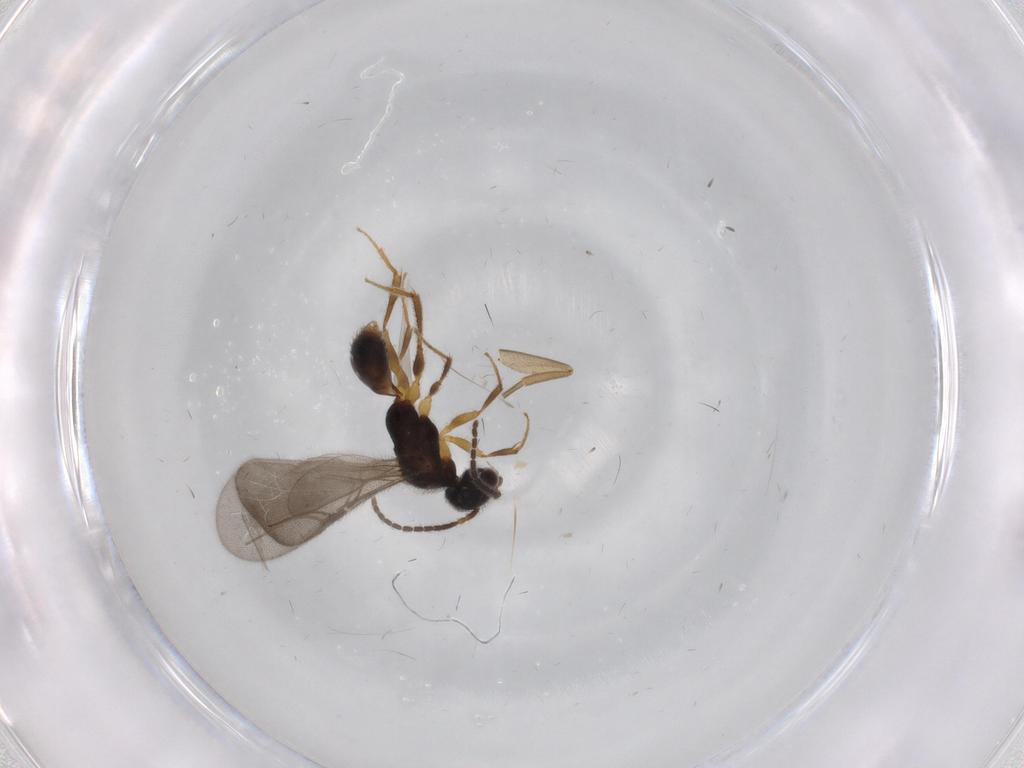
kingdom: Animalia
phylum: Arthropoda
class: Insecta
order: Hymenoptera
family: Bethylidae
